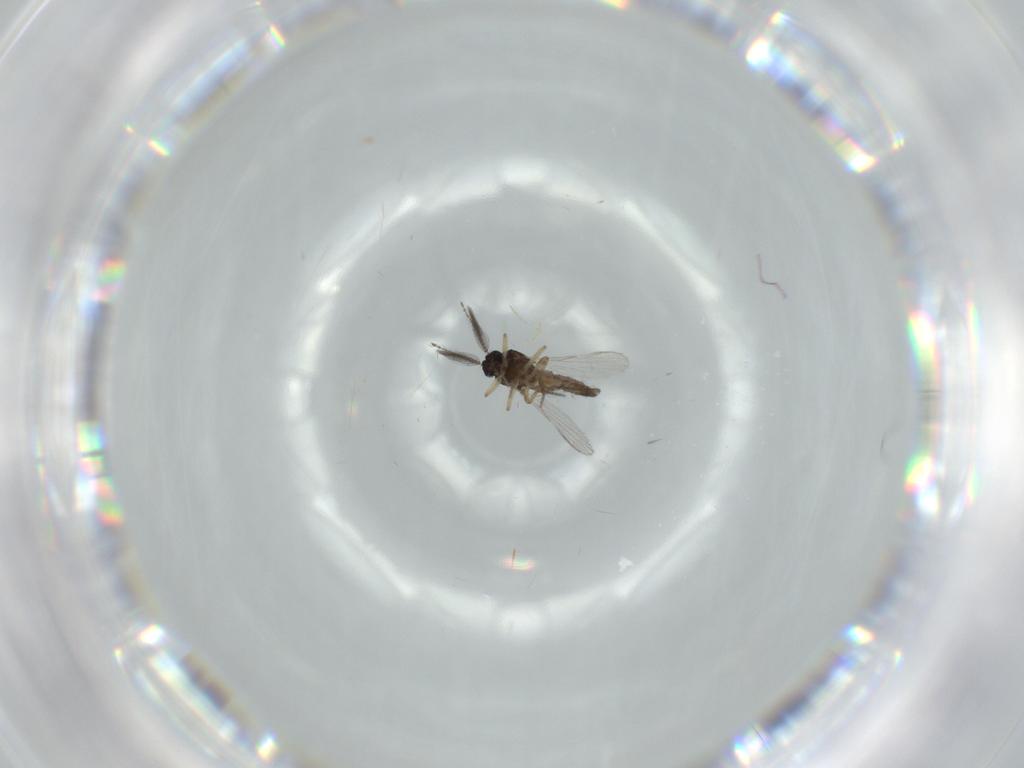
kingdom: Animalia
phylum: Arthropoda
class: Insecta
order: Diptera
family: Ceratopogonidae
